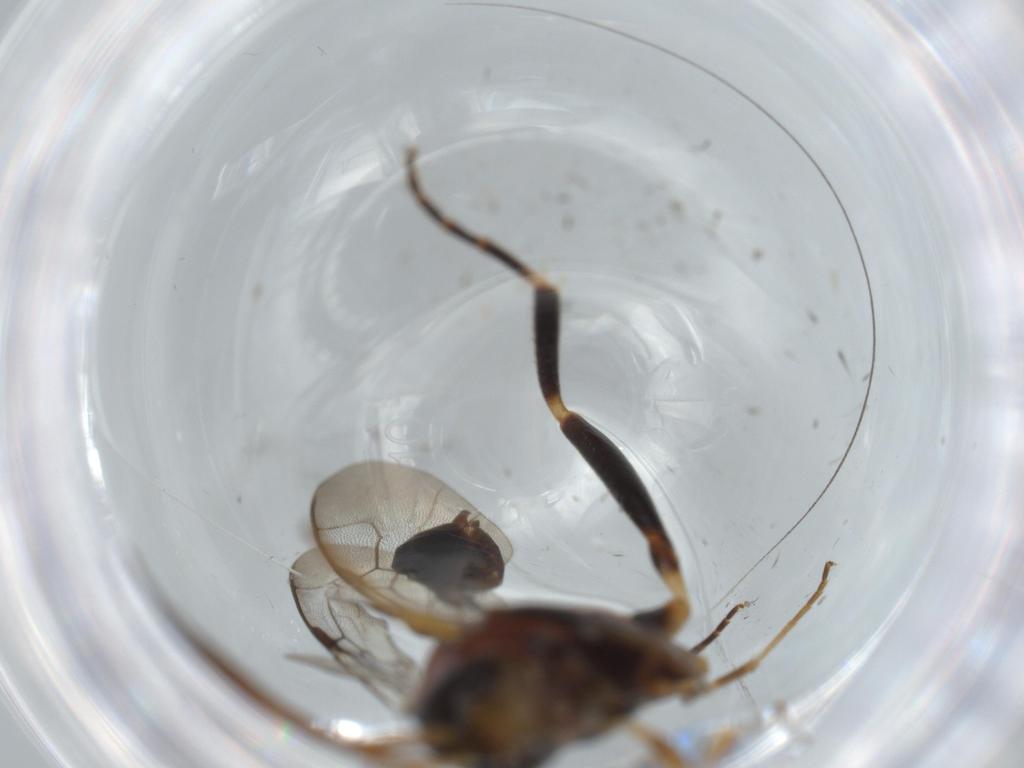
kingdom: Animalia
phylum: Arthropoda
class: Insecta
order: Hymenoptera
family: Evaniidae
